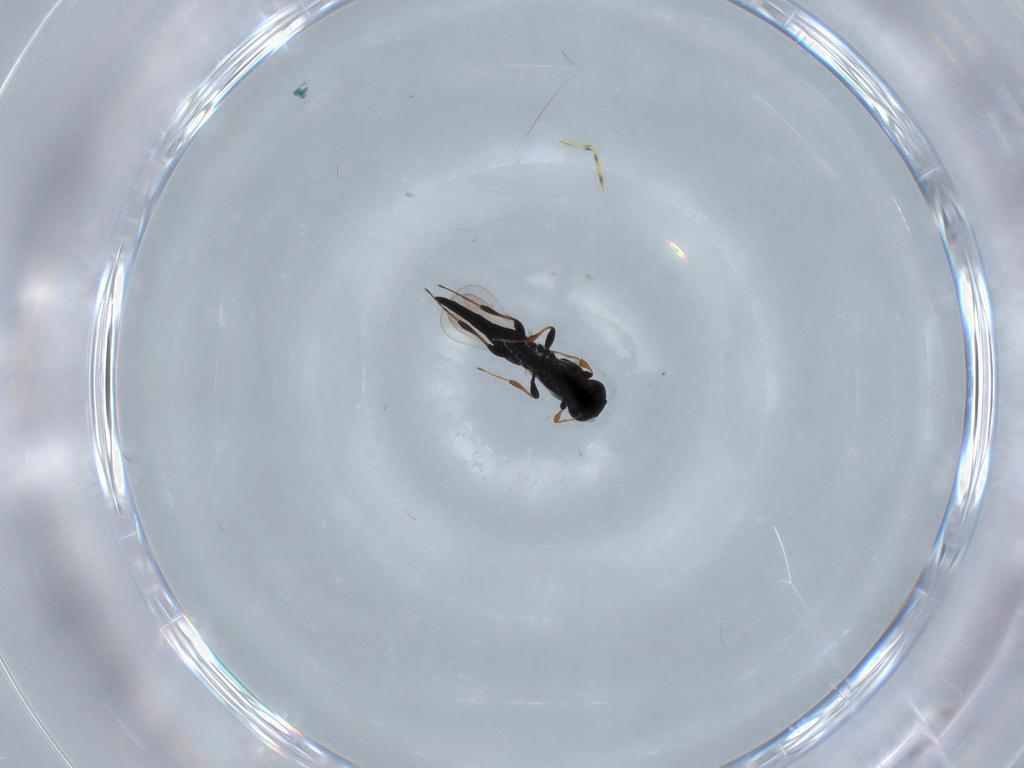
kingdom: Animalia
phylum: Arthropoda
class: Insecta
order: Hymenoptera
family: Platygastridae
